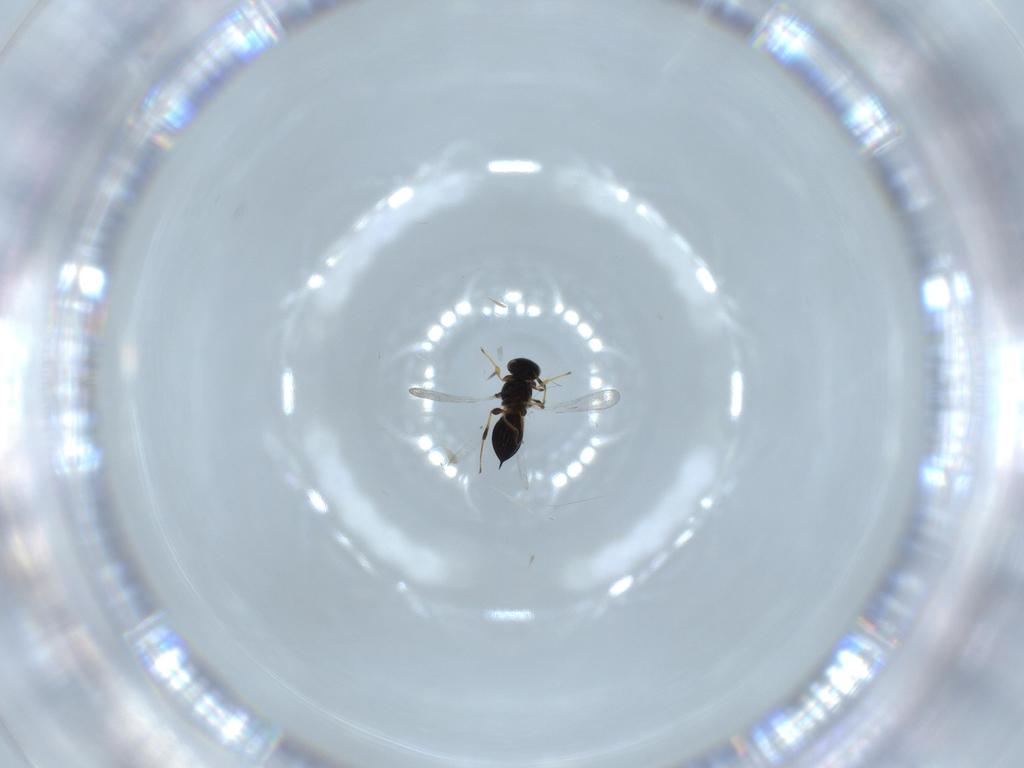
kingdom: Animalia
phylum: Arthropoda
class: Insecta
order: Hymenoptera
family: Platygastridae
